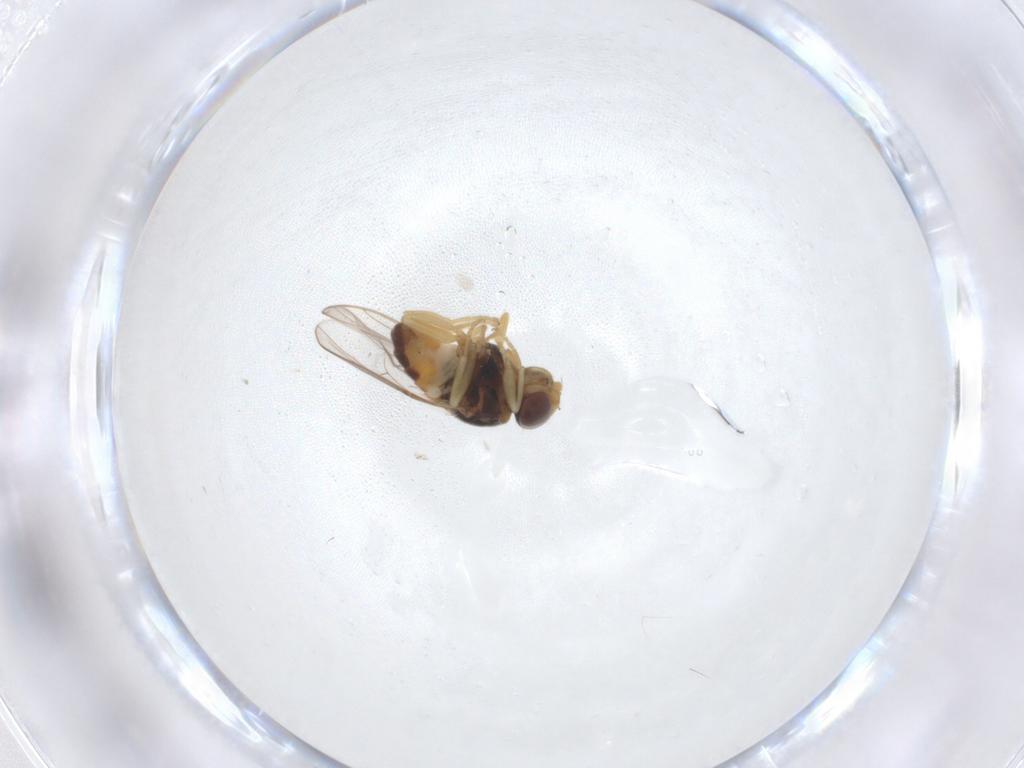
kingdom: Animalia
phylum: Arthropoda
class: Insecta
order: Diptera
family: Chloropidae
